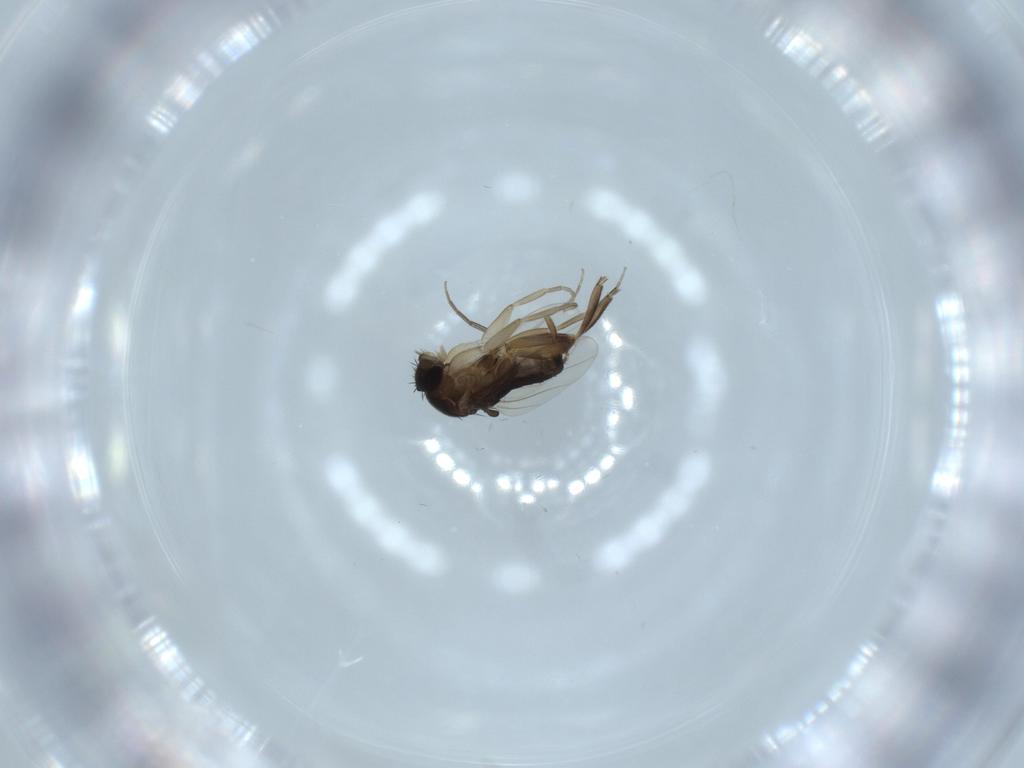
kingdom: Animalia
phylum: Arthropoda
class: Insecta
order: Diptera
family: Phoridae
